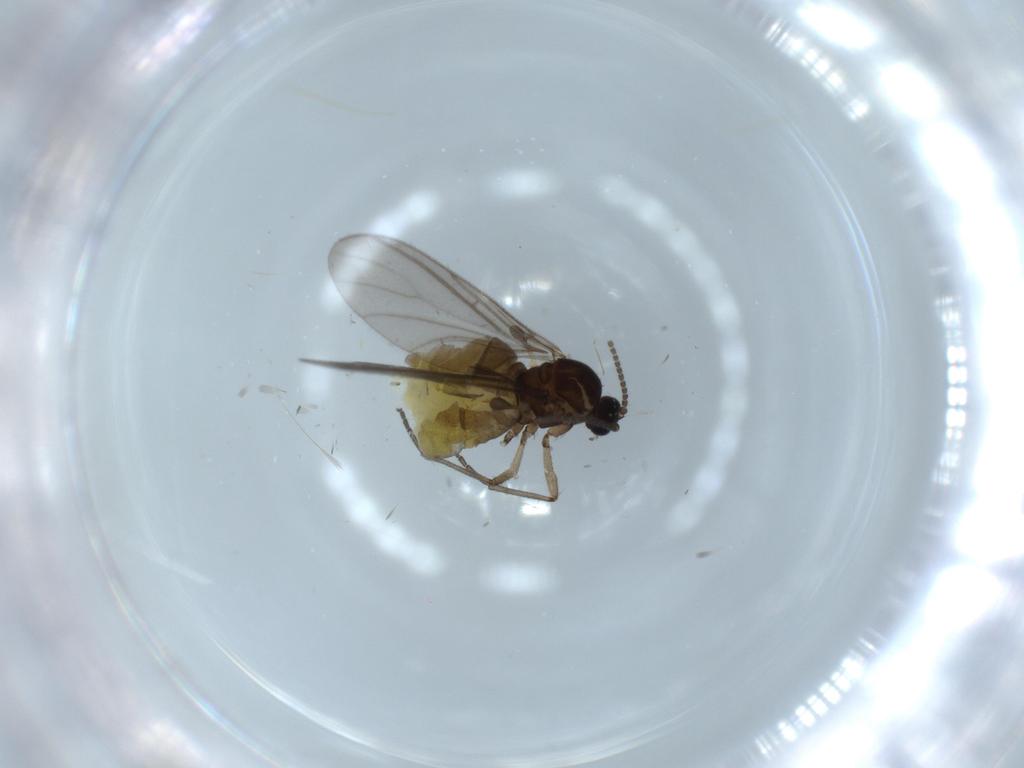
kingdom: Animalia
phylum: Arthropoda
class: Insecta
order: Diptera
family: Sciaridae
